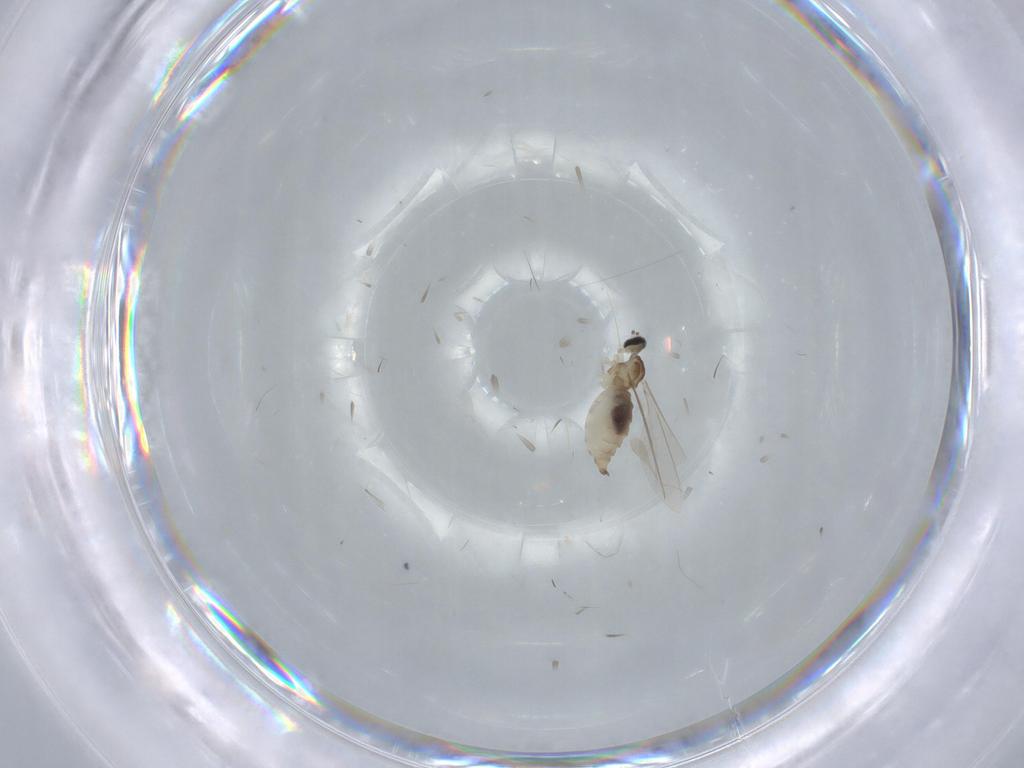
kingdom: Animalia
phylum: Arthropoda
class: Insecta
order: Diptera
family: Cecidomyiidae
